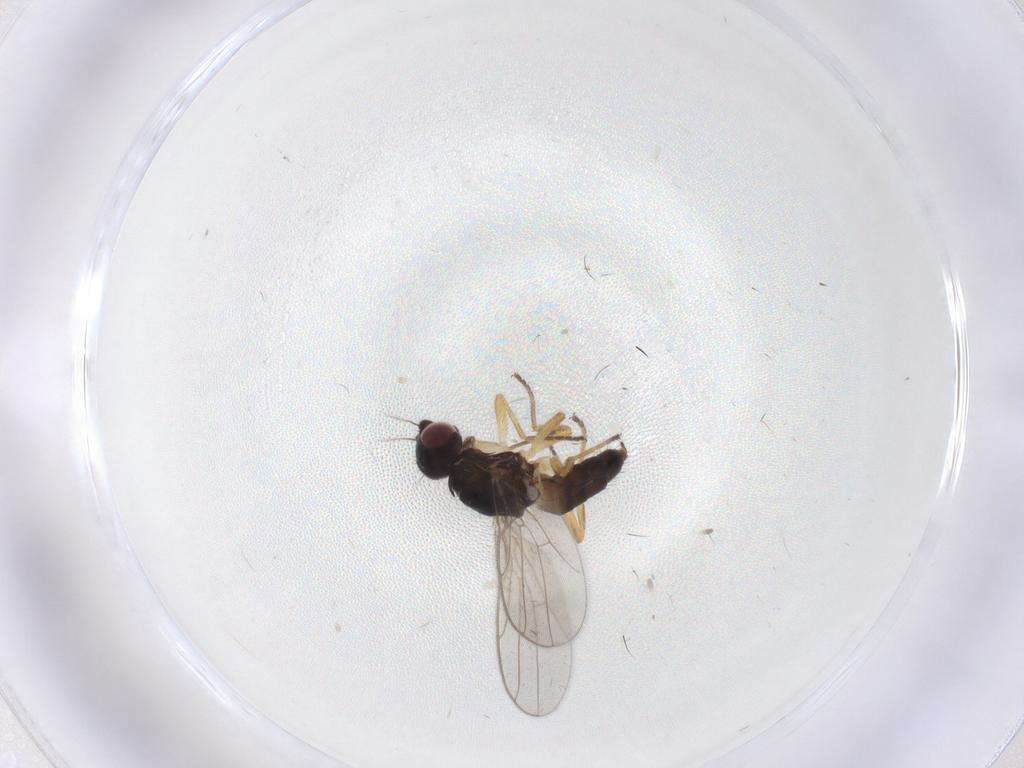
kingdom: Animalia
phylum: Arthropoda
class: Insecta
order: Diptera
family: Chloropidae
